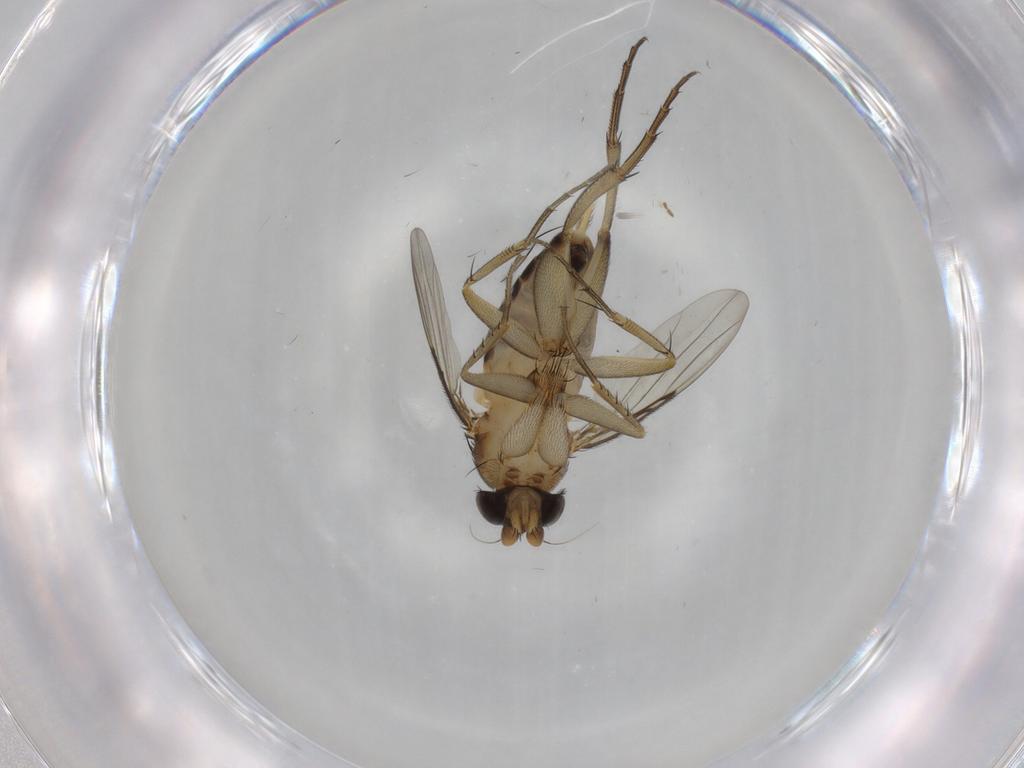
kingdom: Animalia
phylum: Arthropoda
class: Insecta
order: Diptera
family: Phoridae
